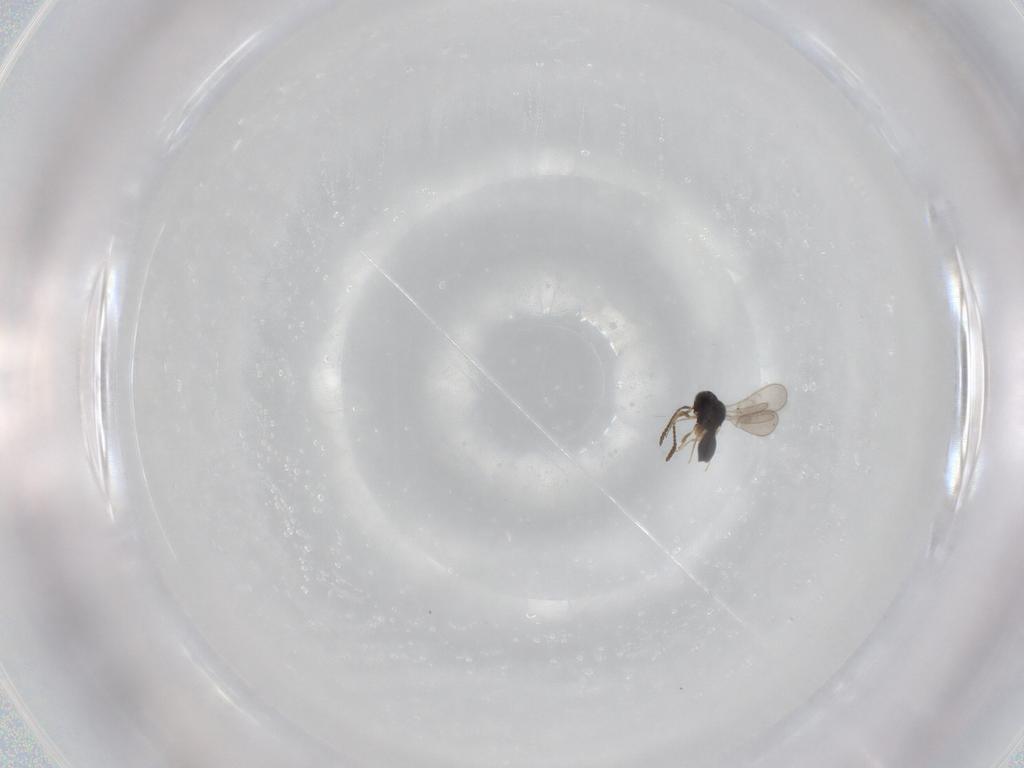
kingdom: Animalia
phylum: Arthropoda
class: Insecta
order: Hymenoptera
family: Scelionidae
